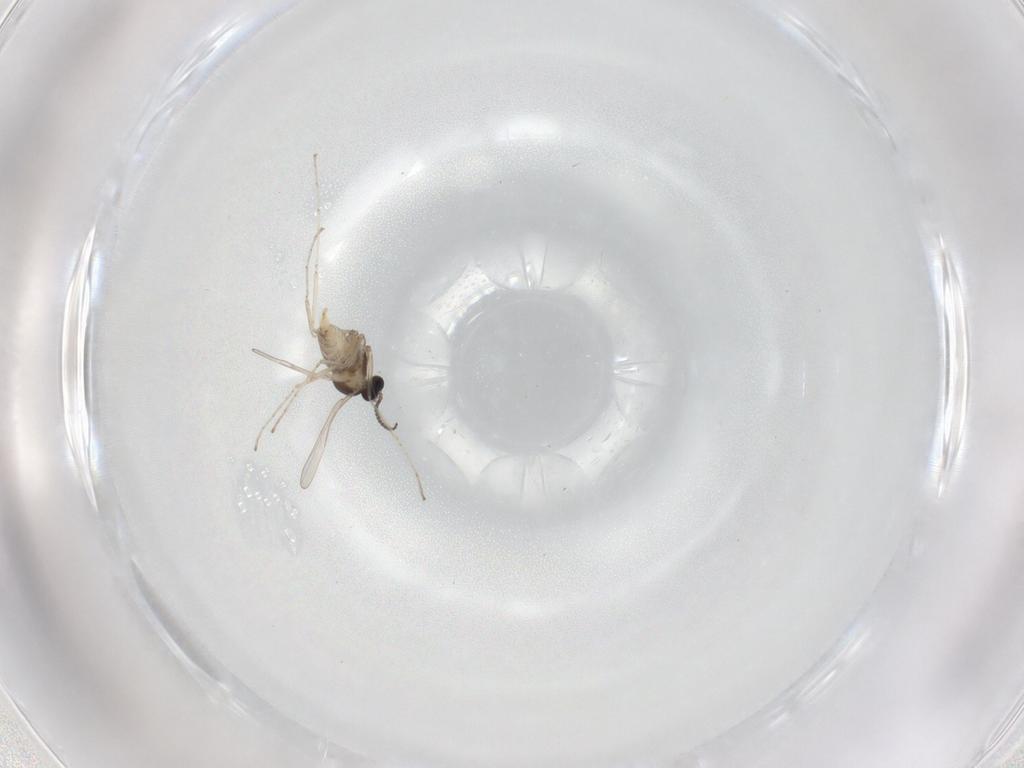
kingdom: Animalia
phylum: Arthropoda
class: Insecta
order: Diptera
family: Cecidomyiidae
